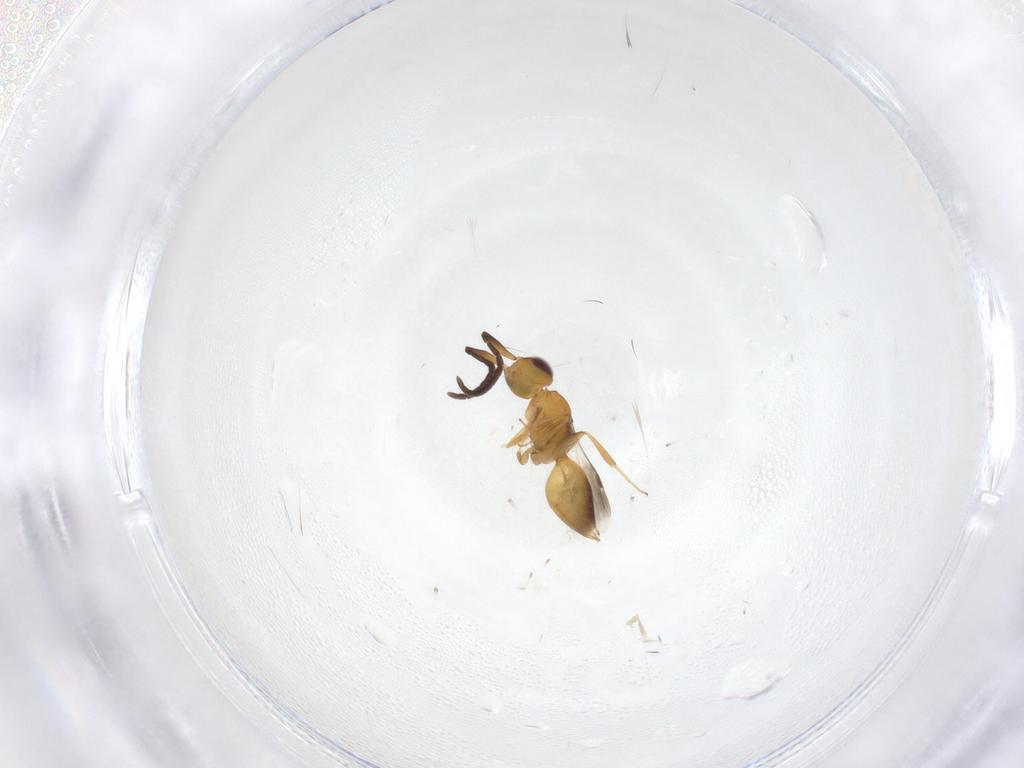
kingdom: Animalia
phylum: Arthropoda
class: Insecta
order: Hymenoptera
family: Megaspilidae
